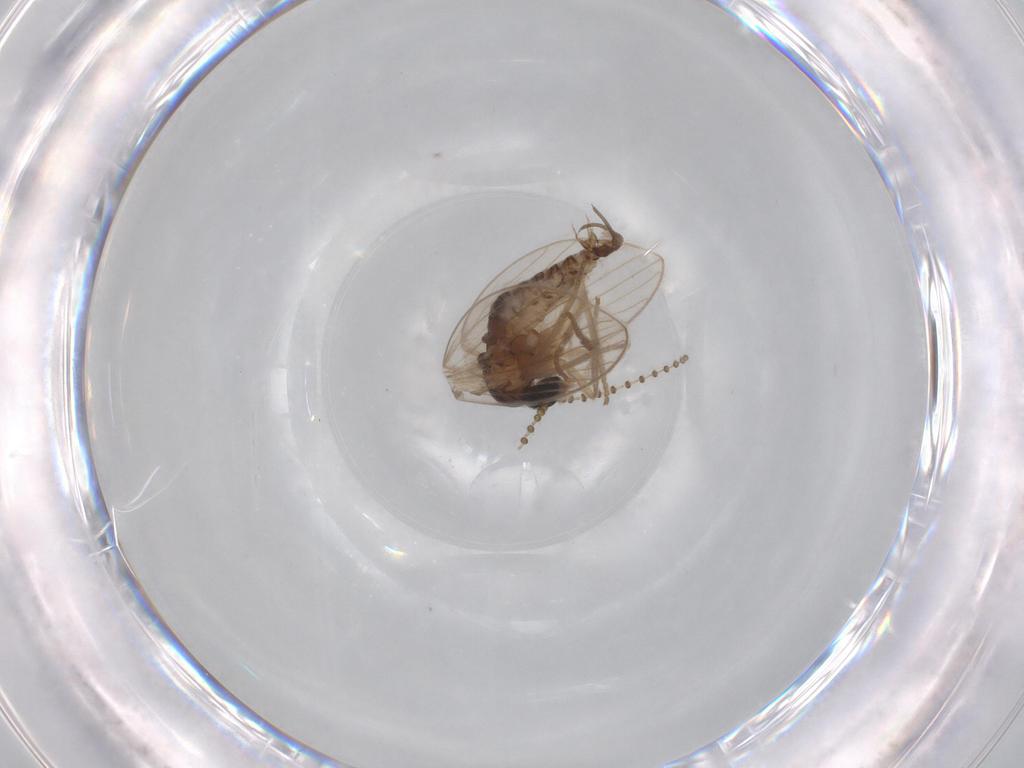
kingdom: Animalia
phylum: Arthropoda
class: Insecta
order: Diptera
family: Psychodidae
